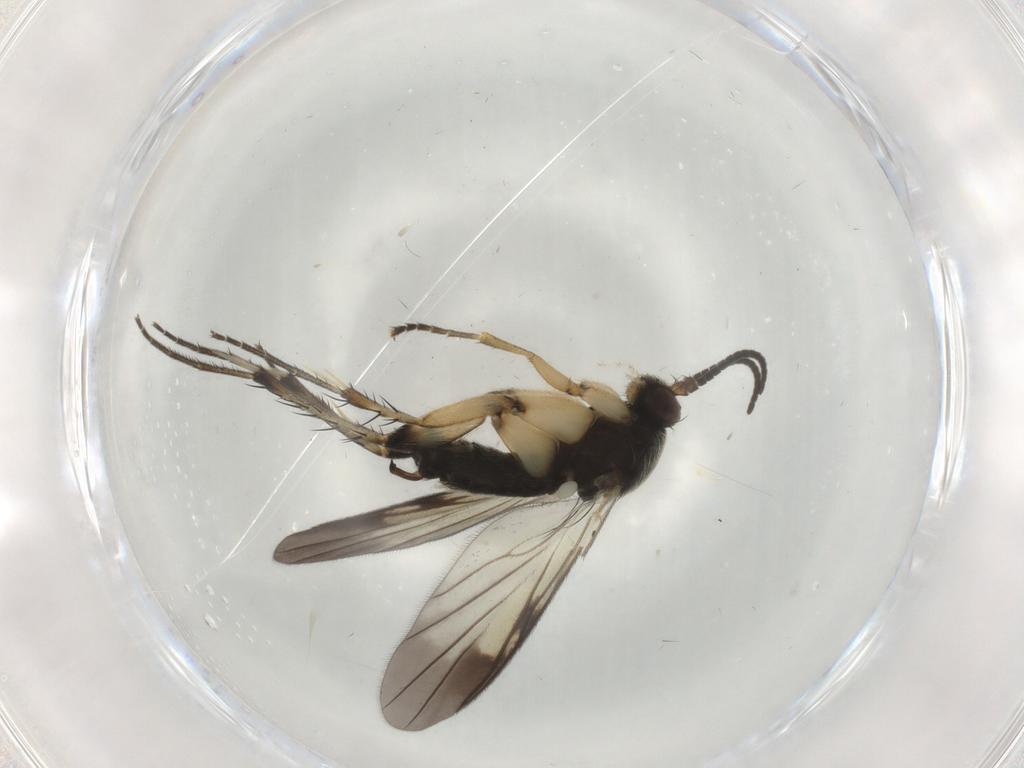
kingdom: Animalia
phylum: Arthropoda
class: Insecta
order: Diptera
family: Mycetophilidae
